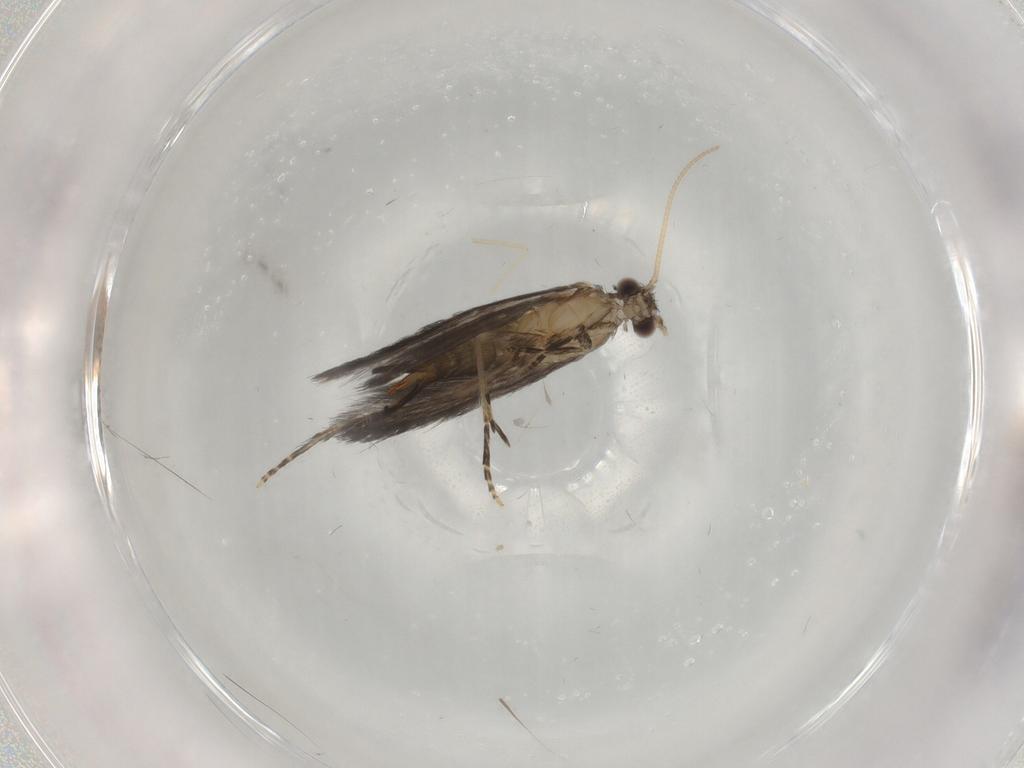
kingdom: Animalia
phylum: Arthropoda
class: Insecta
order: Trichoptera
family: Hydroptilidae
